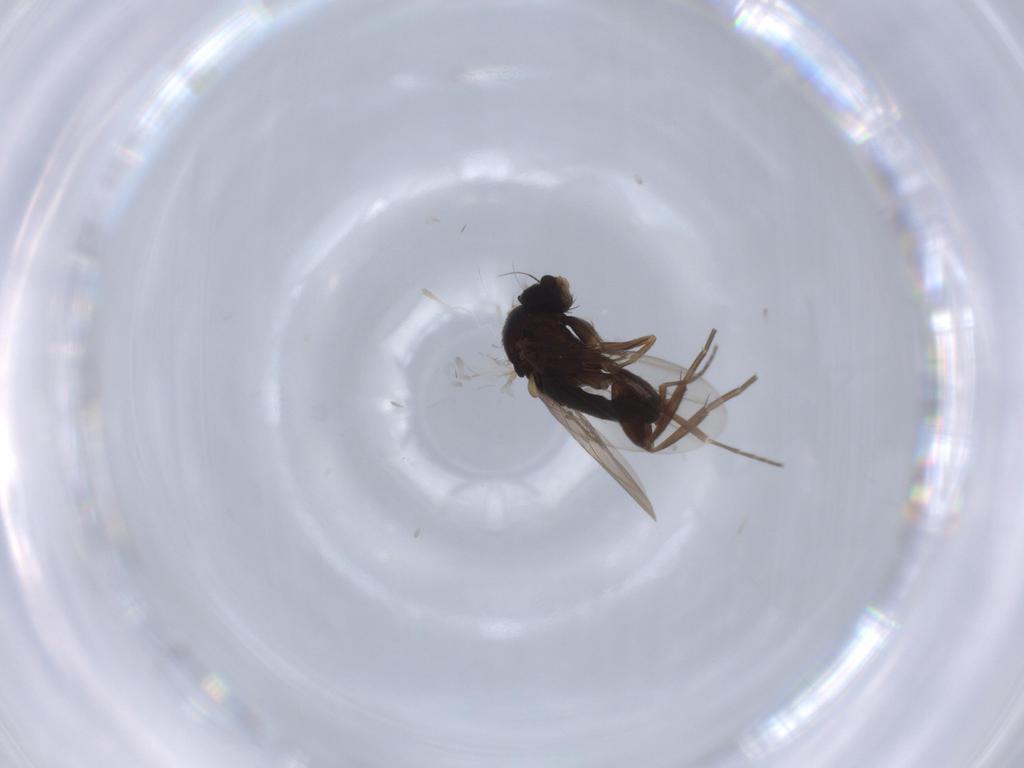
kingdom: Animalia
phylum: Arthropoda
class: Insecta
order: Diptera
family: Phoridae
